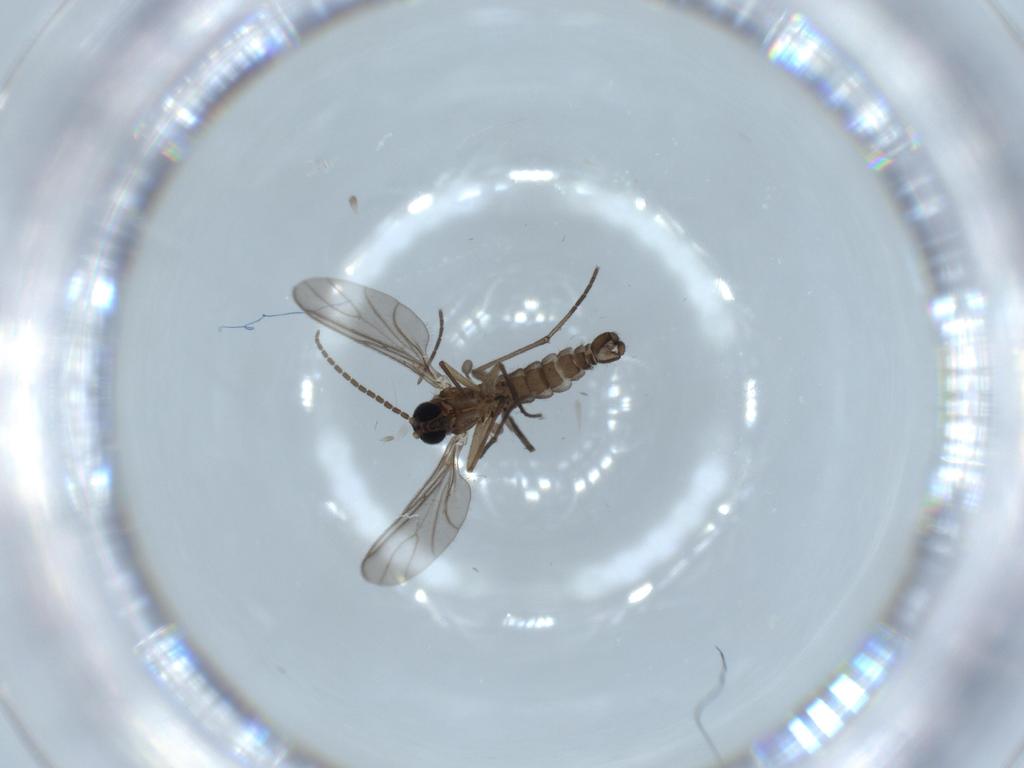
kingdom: Animalia
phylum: Arthropoda
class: Insecta
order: Diptera
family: Sciaridae
